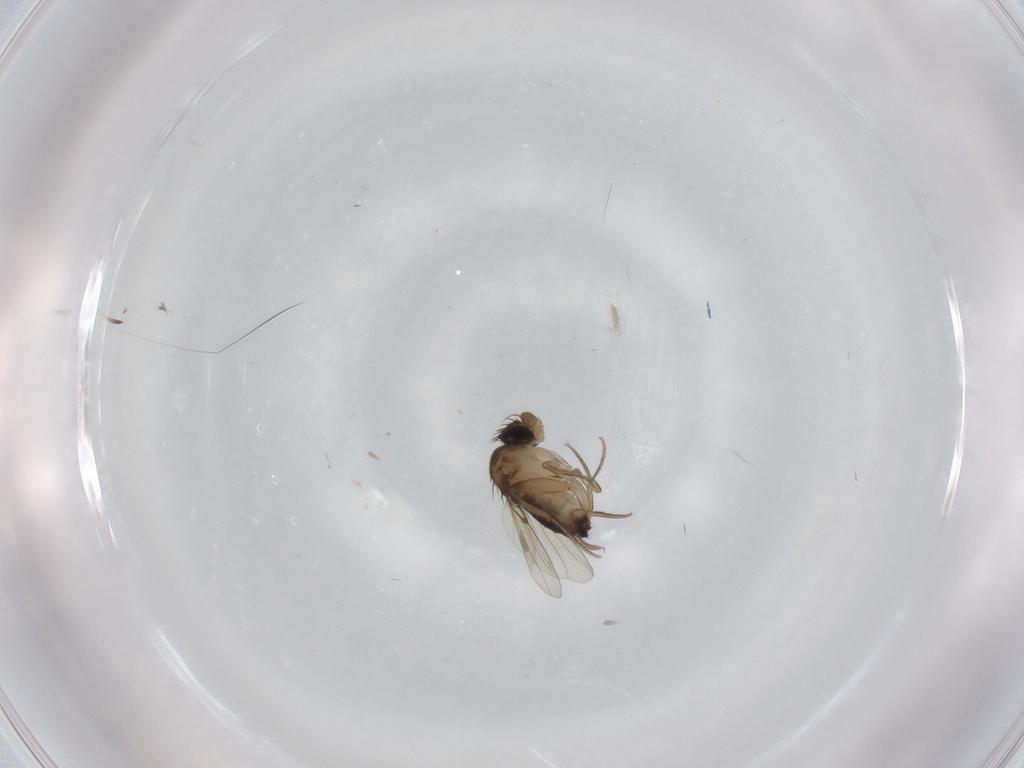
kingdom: Animalia
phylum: Arthropoda
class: Insecta
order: Diptera
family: Ceratopogonidae
